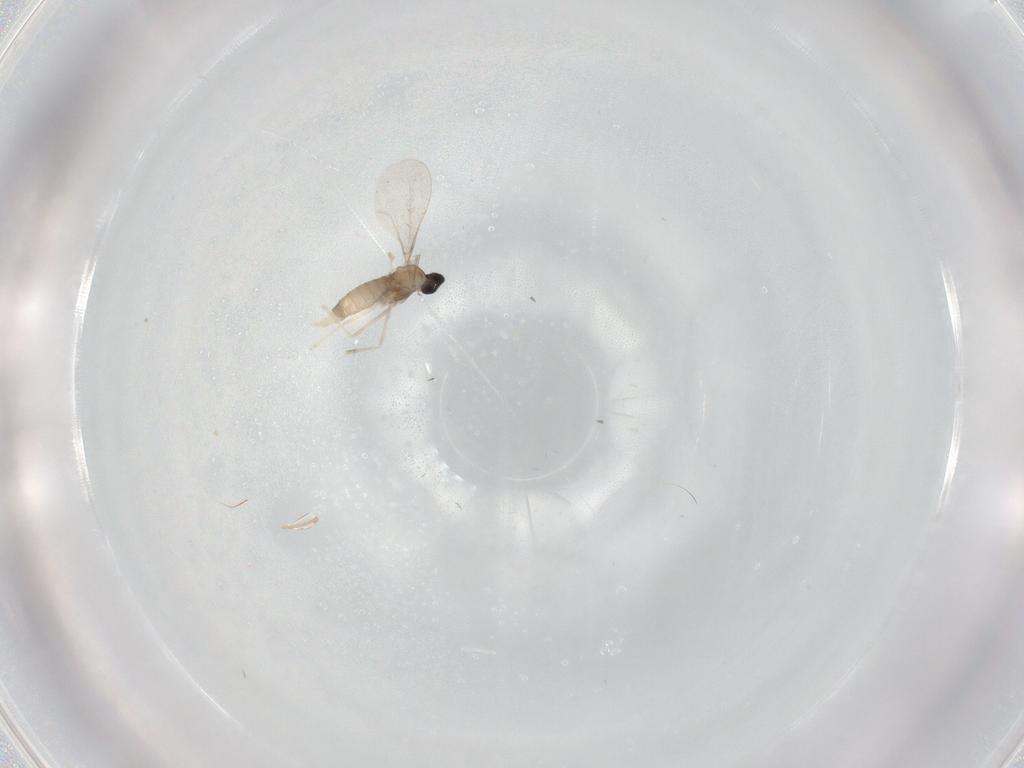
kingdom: Animalia
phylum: Arthropoda
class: Insecta
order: Diptera
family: Cecidomyiidae
